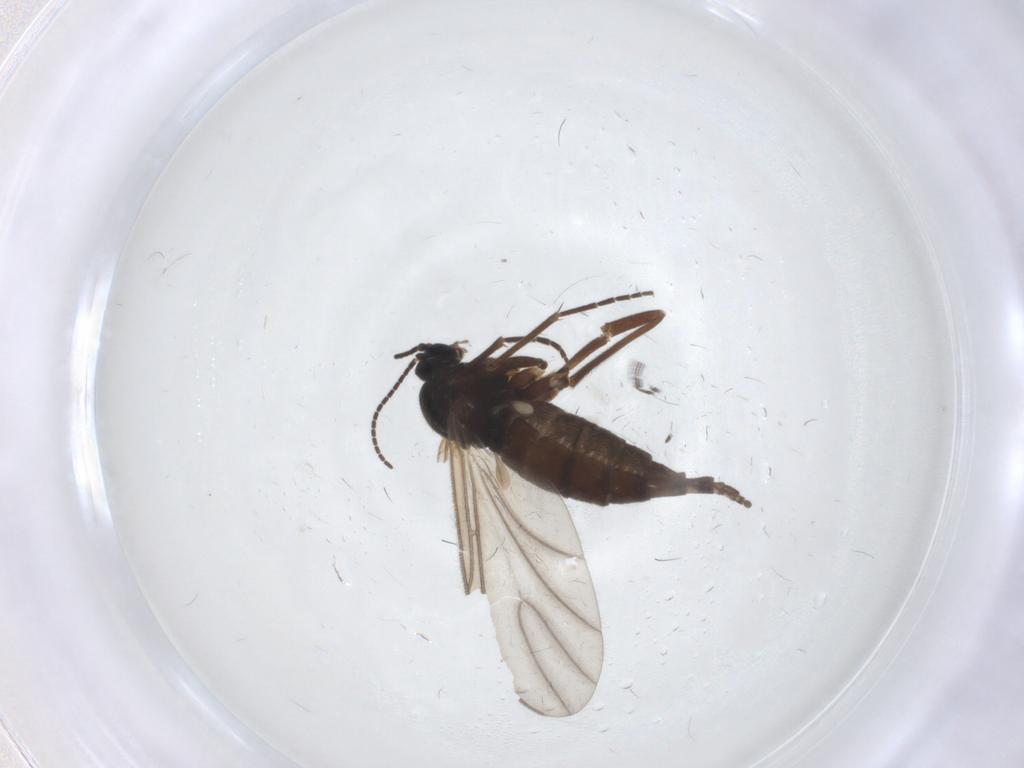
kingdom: Animalia
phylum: Arthropoda
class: Insecta
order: Diptera
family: Sciaridae
